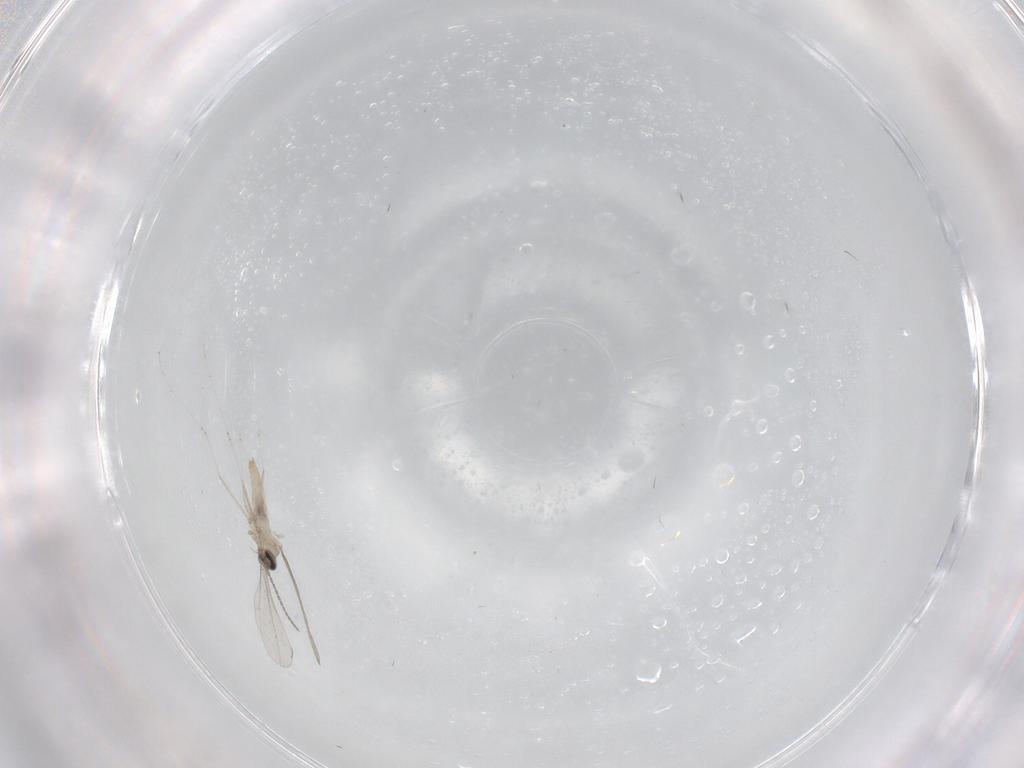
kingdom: Animalia
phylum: Arthropoda
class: Insecta
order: Diptera
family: Cecidomyiidae
